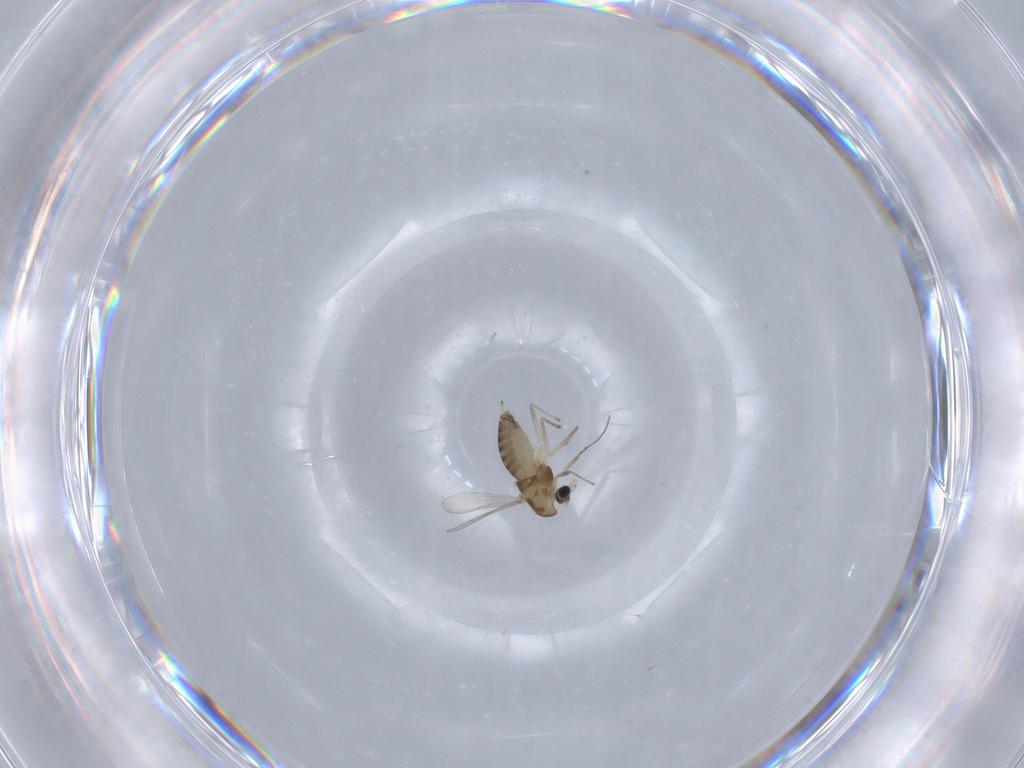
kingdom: Animalia
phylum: Arthropoda
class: Insecta
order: Diptera
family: Chironomidae
